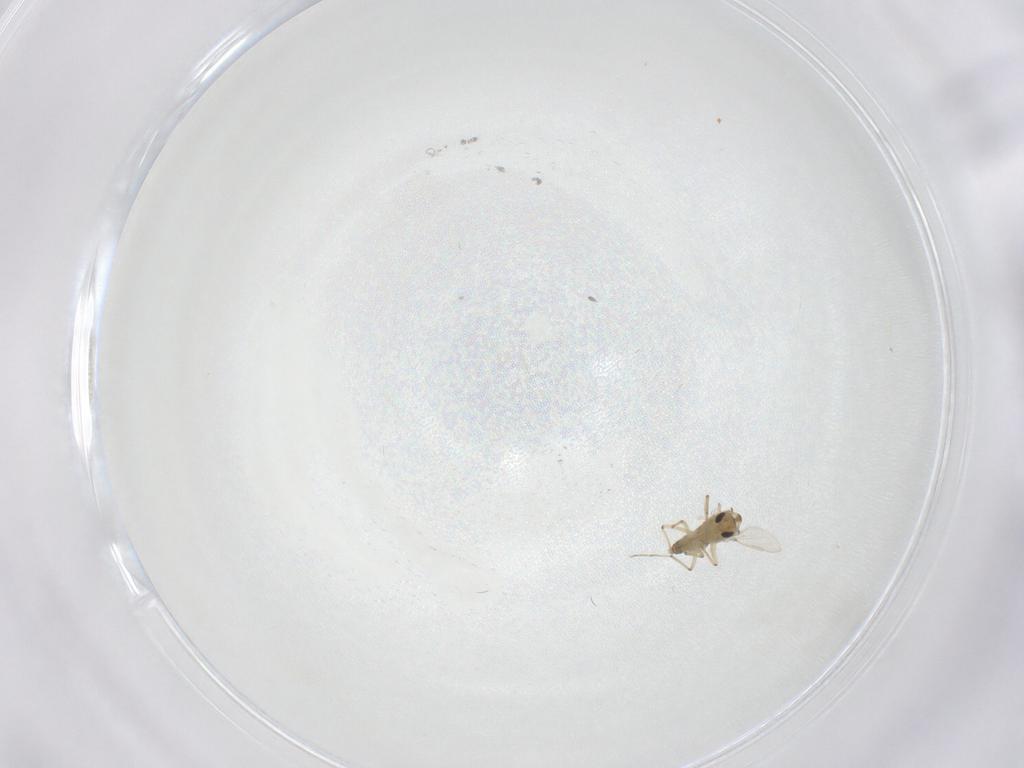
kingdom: Animalia
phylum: Arthropoda
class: Insecta
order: Diptera
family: Chironomidae
